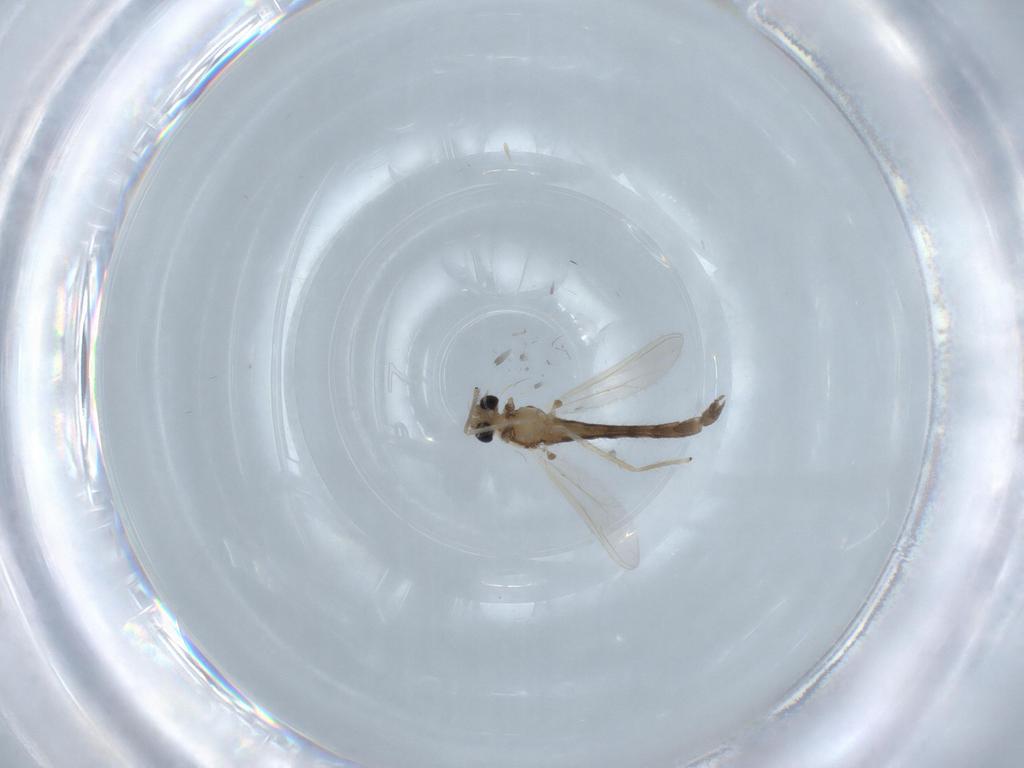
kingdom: Animalia
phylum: Arthropoda
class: Insecta
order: Diptera
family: Chironomidae
